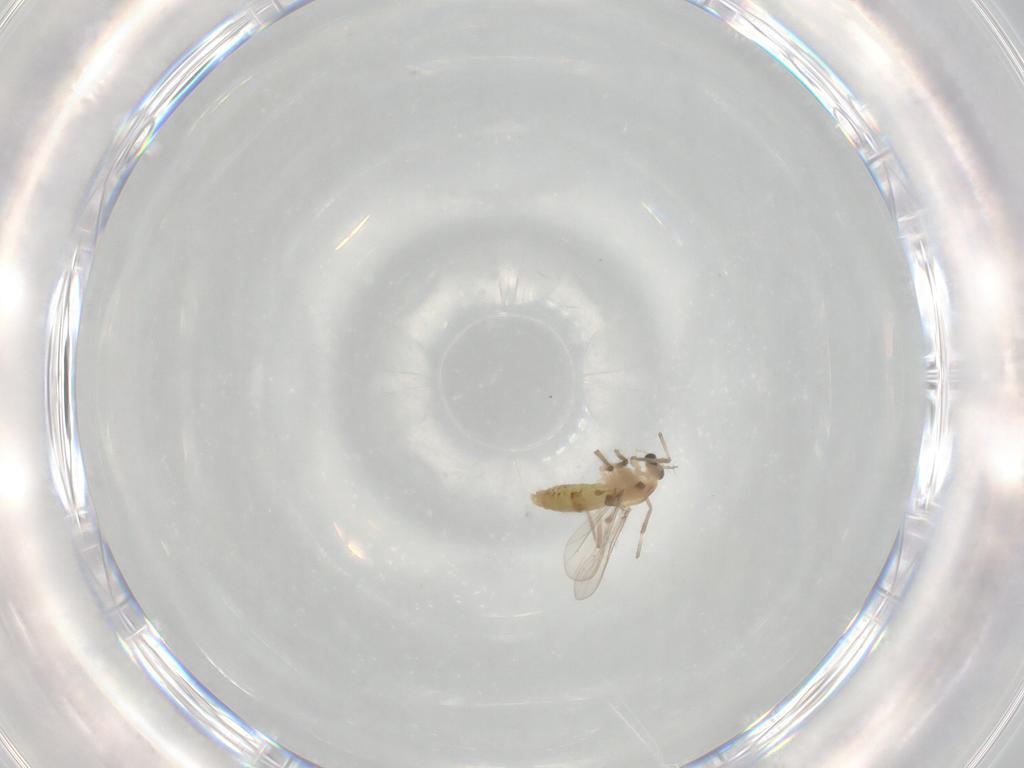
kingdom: Animalia
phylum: Arthropoda
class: Insecta
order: Diptera
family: Chironomidae
